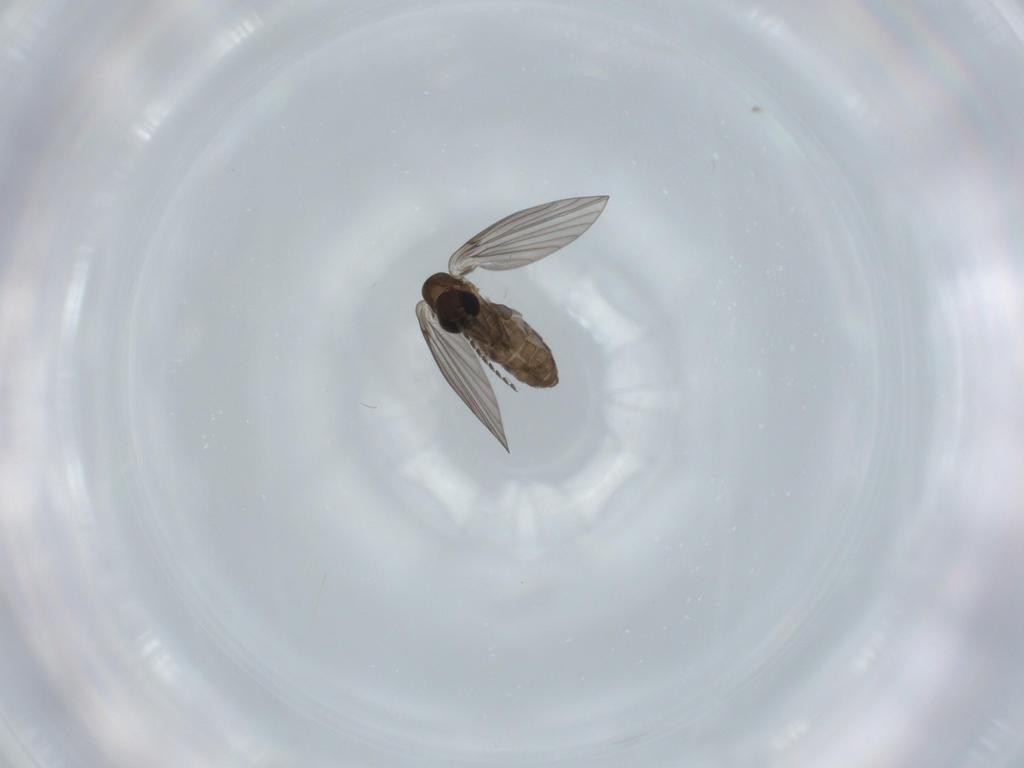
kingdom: Animalia
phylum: Arthropoda
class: Insecta
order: Diptera
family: Psychodidae
